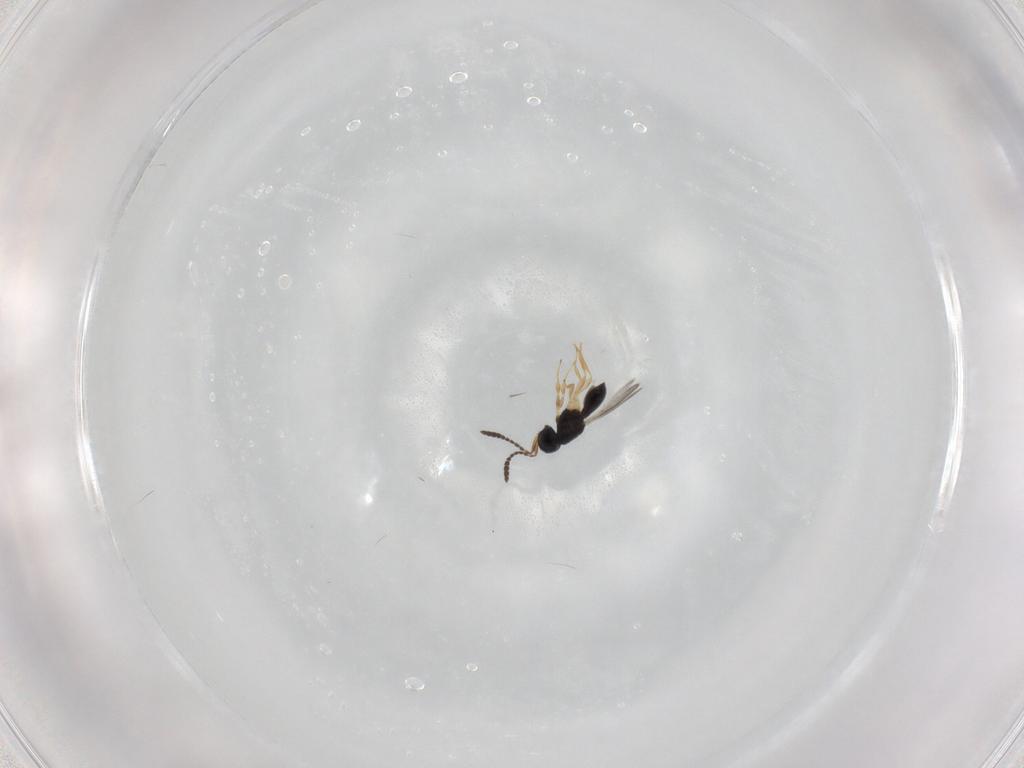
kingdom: Animalia
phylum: Arthropoda
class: Insecta
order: Hymenoptera
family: Scelionidae
